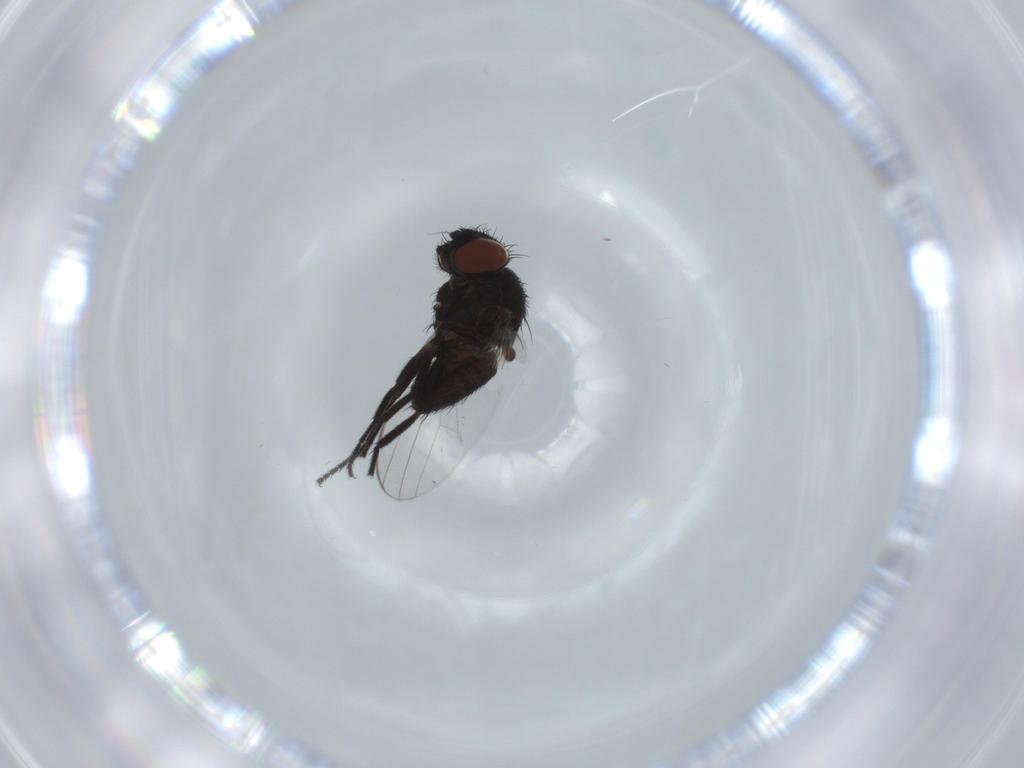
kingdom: Animalia
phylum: Arthropoda
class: Insecta
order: Diptera
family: Milichiidae
